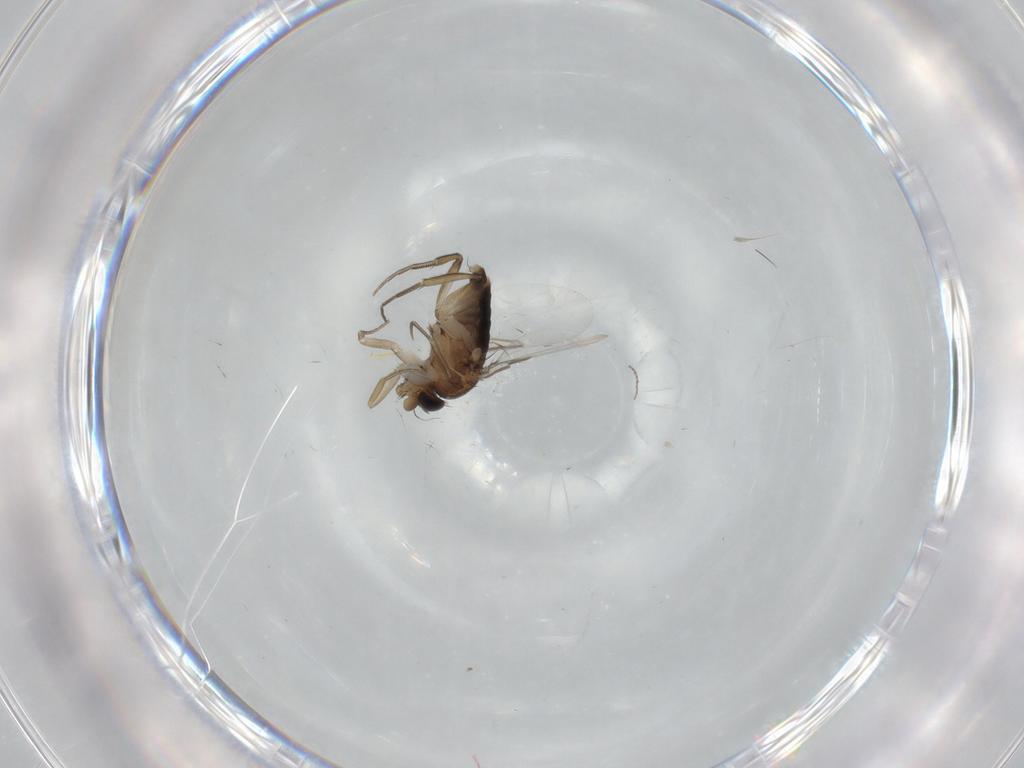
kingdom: Animalia
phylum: Arthropoda
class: Insecta
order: Diptera
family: Phoridae
